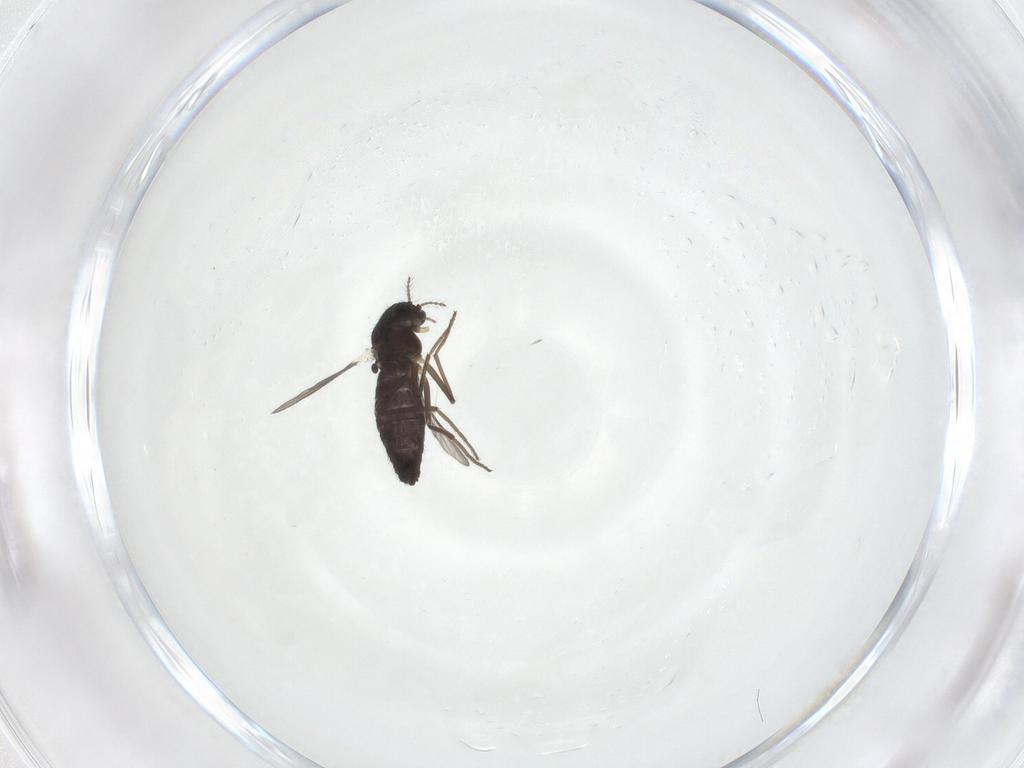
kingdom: Animalia
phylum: Arthropoda
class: Insecta
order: Diptera
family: Chironomidae
